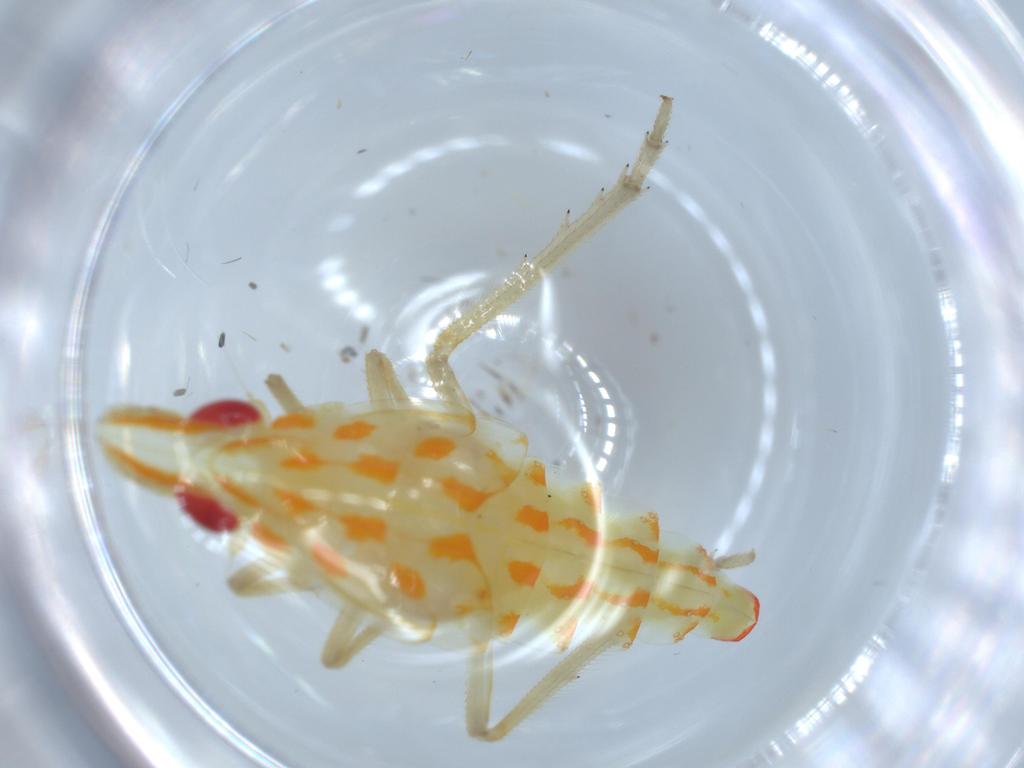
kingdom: Animalia
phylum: Arthropoda
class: Insecta
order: Hemiptera
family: Tropiduchidae
